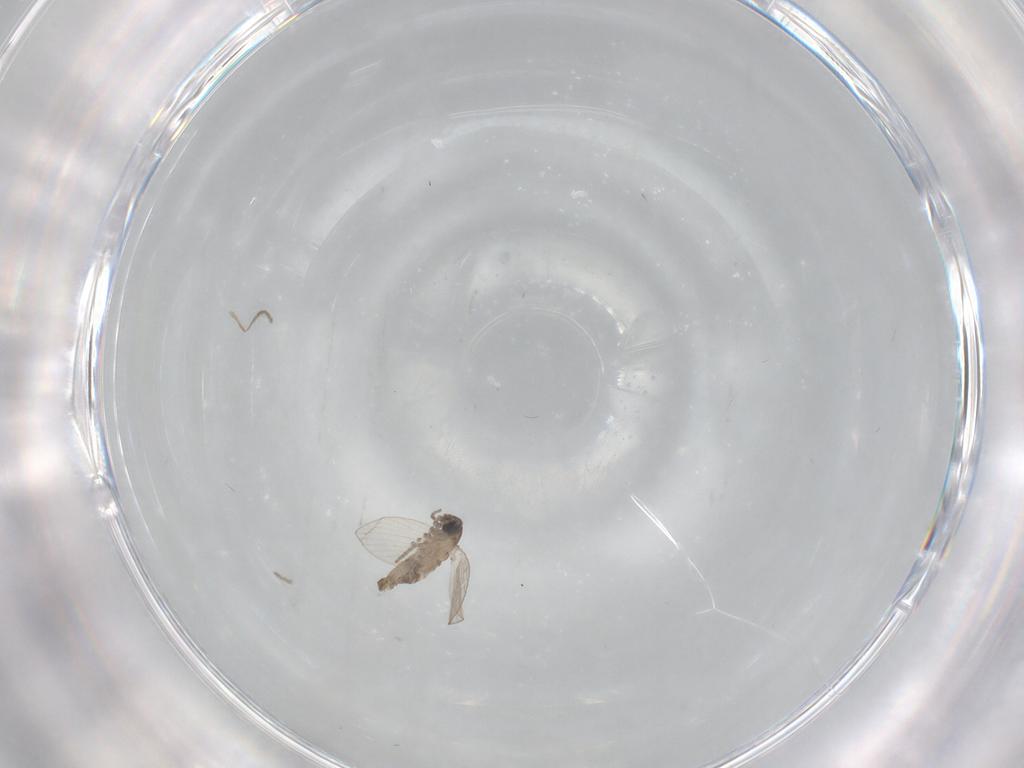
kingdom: Animalia
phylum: Arthropoda
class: Insecta
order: Diptera
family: Psychodidae
